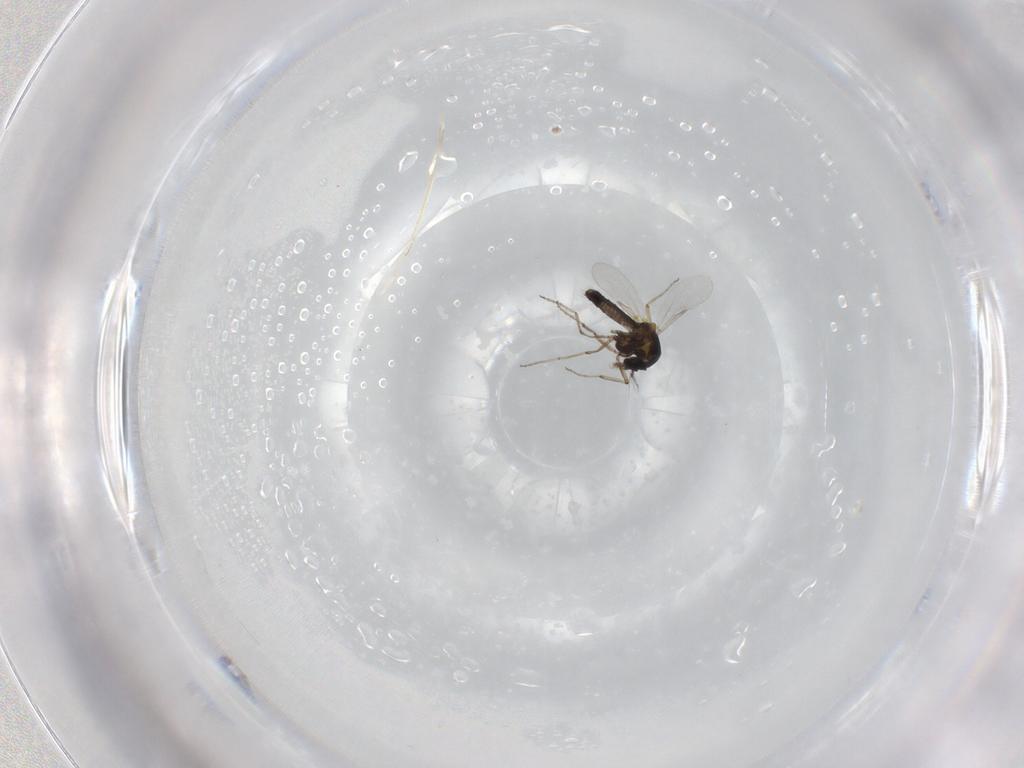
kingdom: Animalia
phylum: Arthropoda
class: Insecta
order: Diptera
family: Ceratopogonidae
